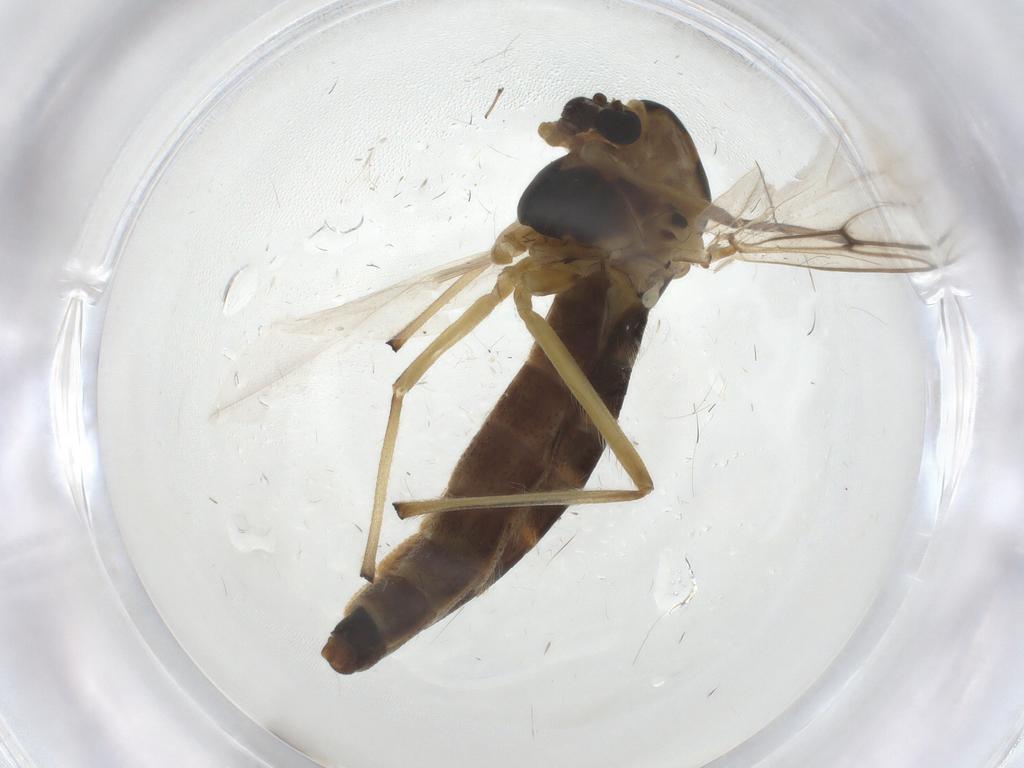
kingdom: Animalia
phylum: Arthropoda
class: Insecta
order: Diptera
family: Chironomidae
